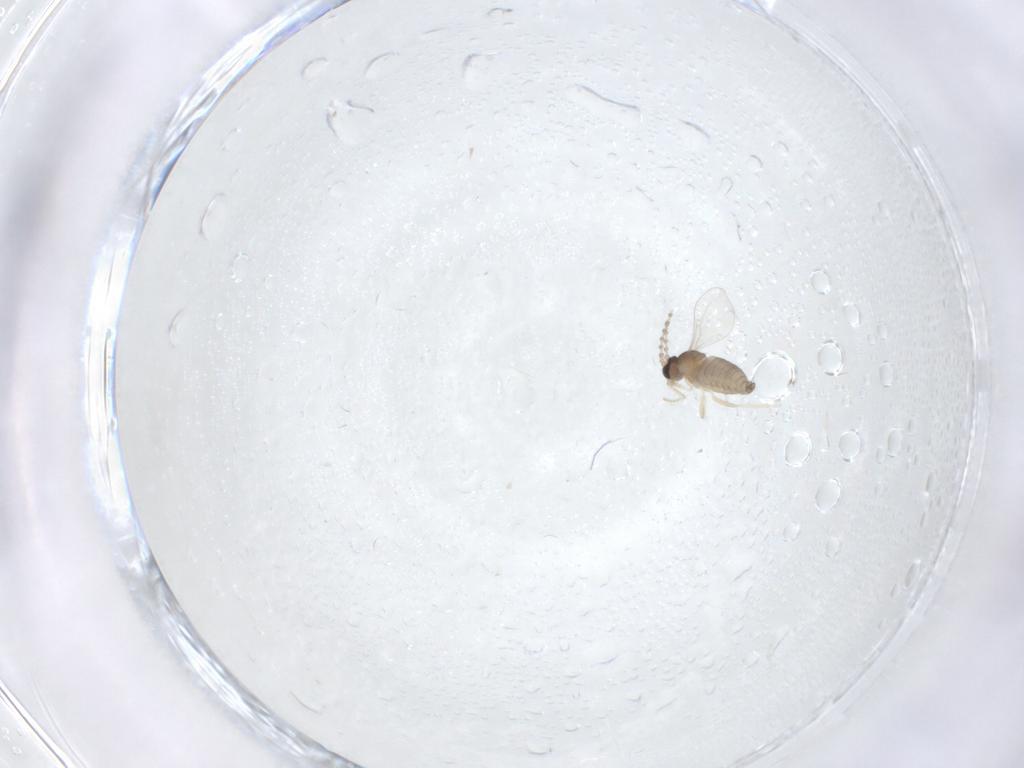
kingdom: Animalia
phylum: Arthropoda
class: Insecta
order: Diptera
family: Cecidomyiidae
